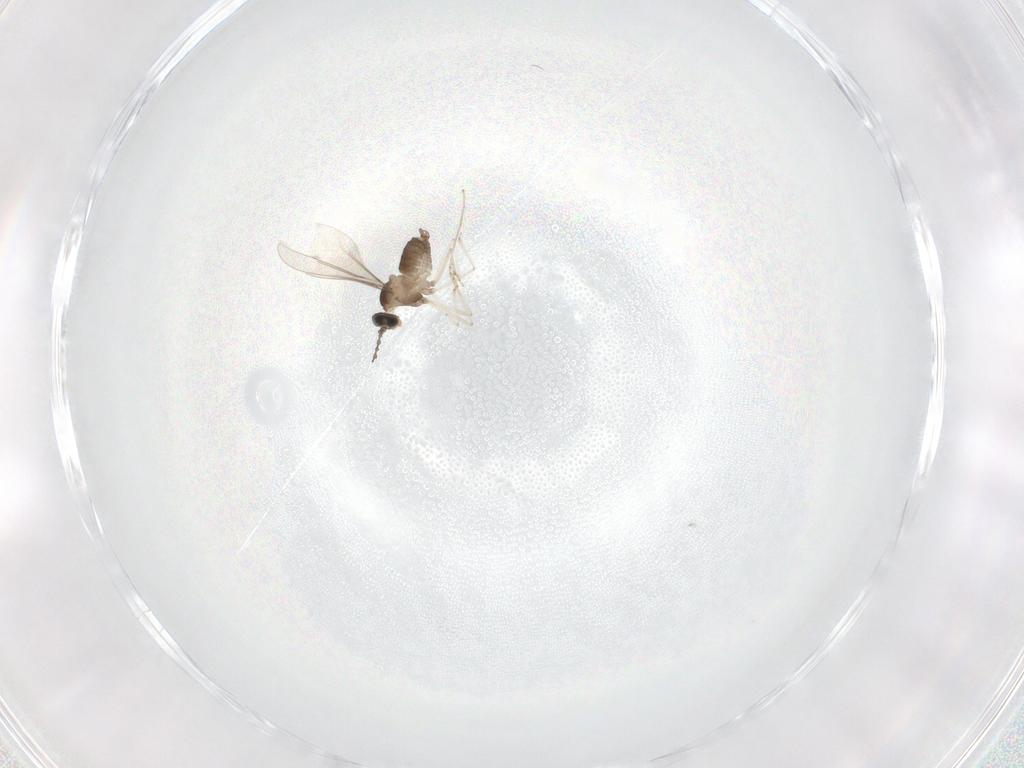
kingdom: Animalia
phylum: Arthropoda
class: Insecta
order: Diptera
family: Cecidomyiidae
